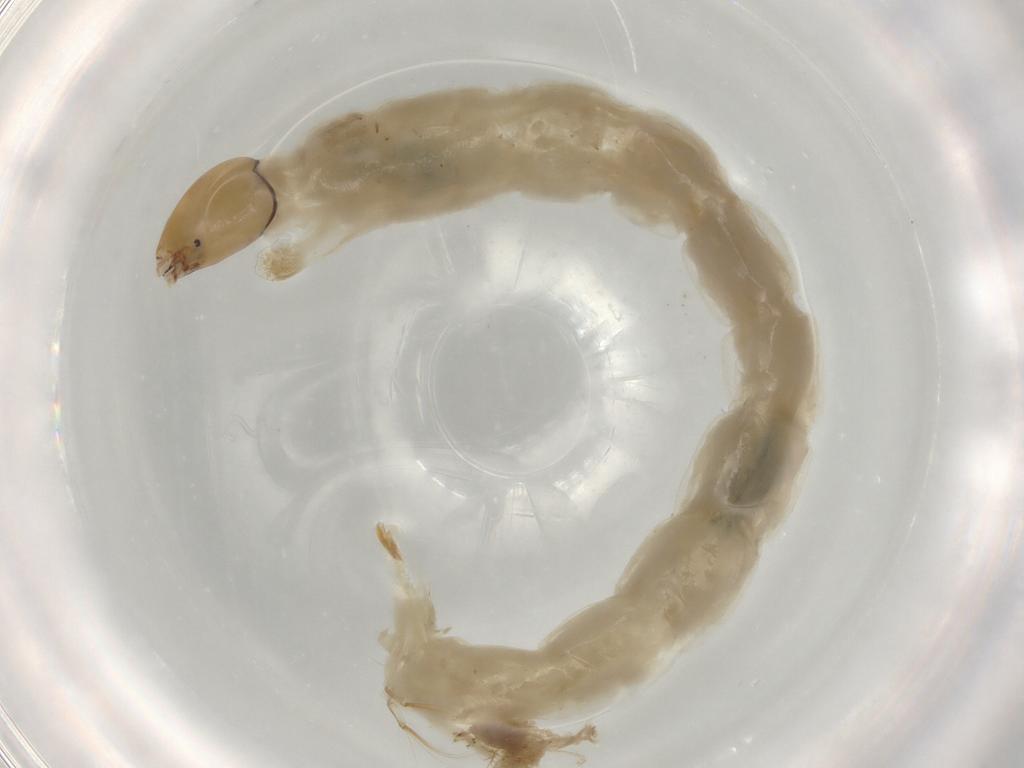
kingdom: Animalia
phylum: Arthropoda
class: Insecta
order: Diptera
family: Chironomidae
